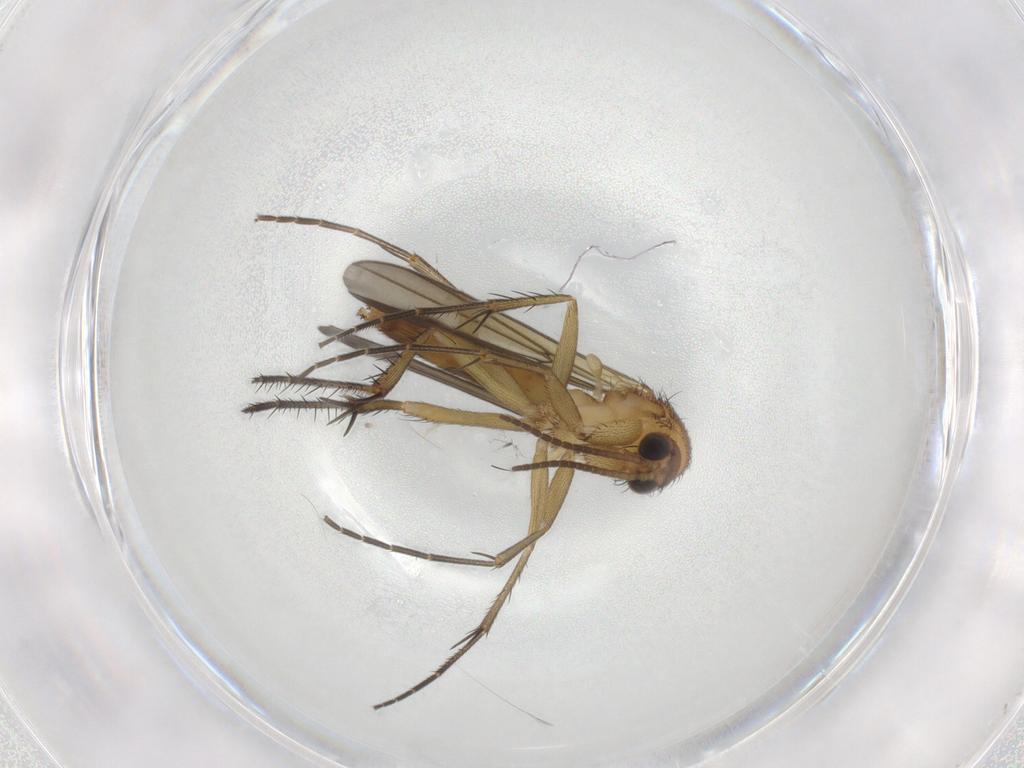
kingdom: Animalia
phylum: Arthropoda
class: Insecta
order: Diptera
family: Mycetophilidae
